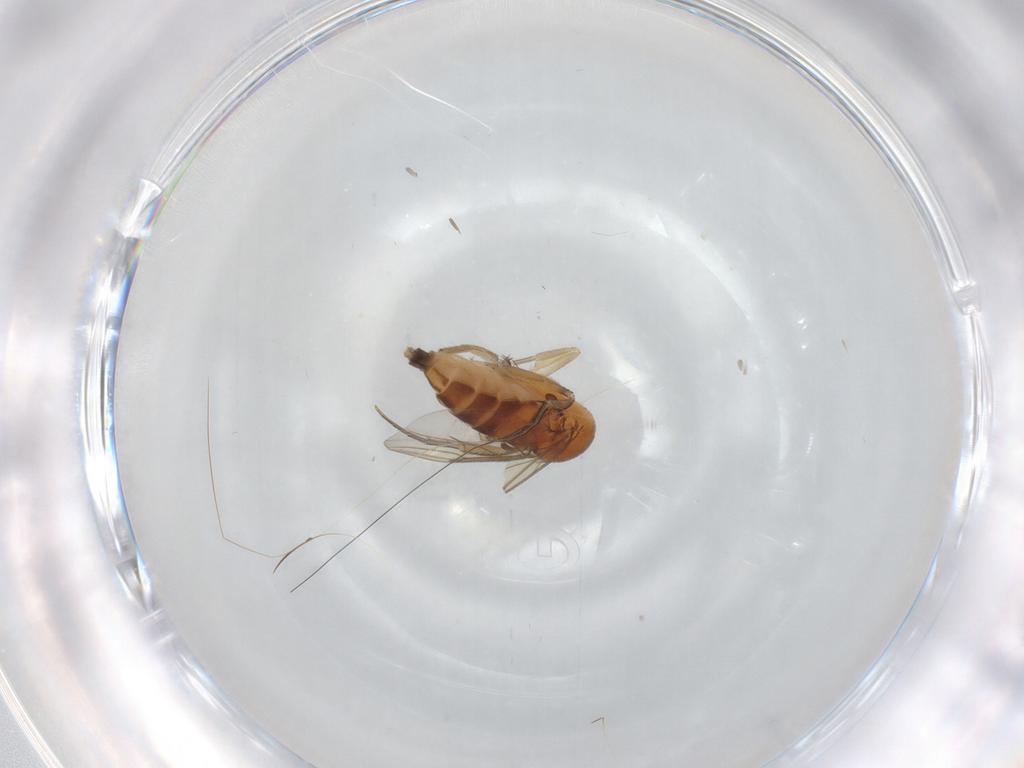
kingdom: Animalia
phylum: Arthropoda
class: Insecta
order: Diptera
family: Phoridae
